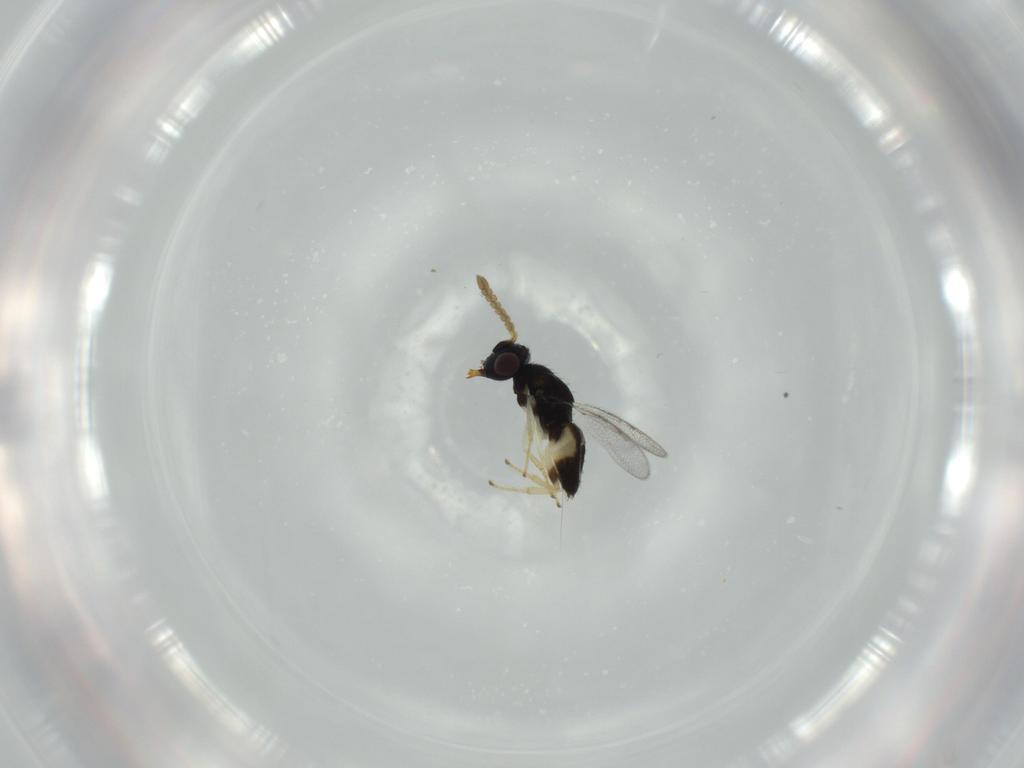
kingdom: Animalia
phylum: Arthropoda
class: Insecta
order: Hymenoptera
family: Pirenidae
